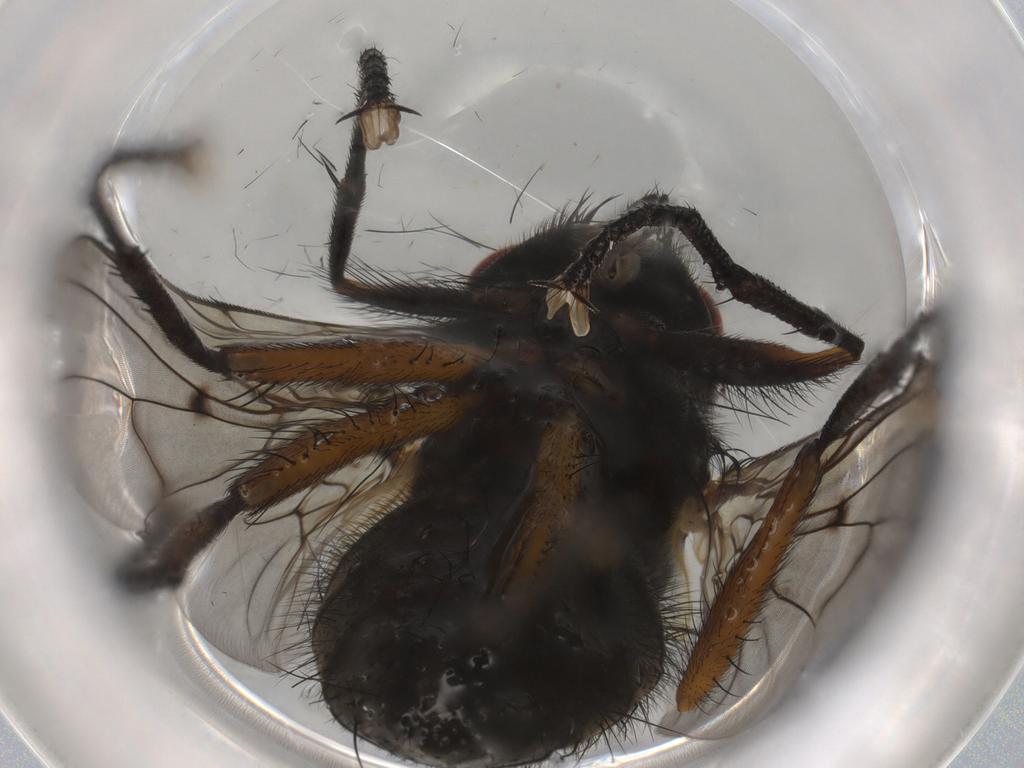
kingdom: Animalia
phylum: Arthropoda
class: Insecta
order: Diptera
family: Muscidae
